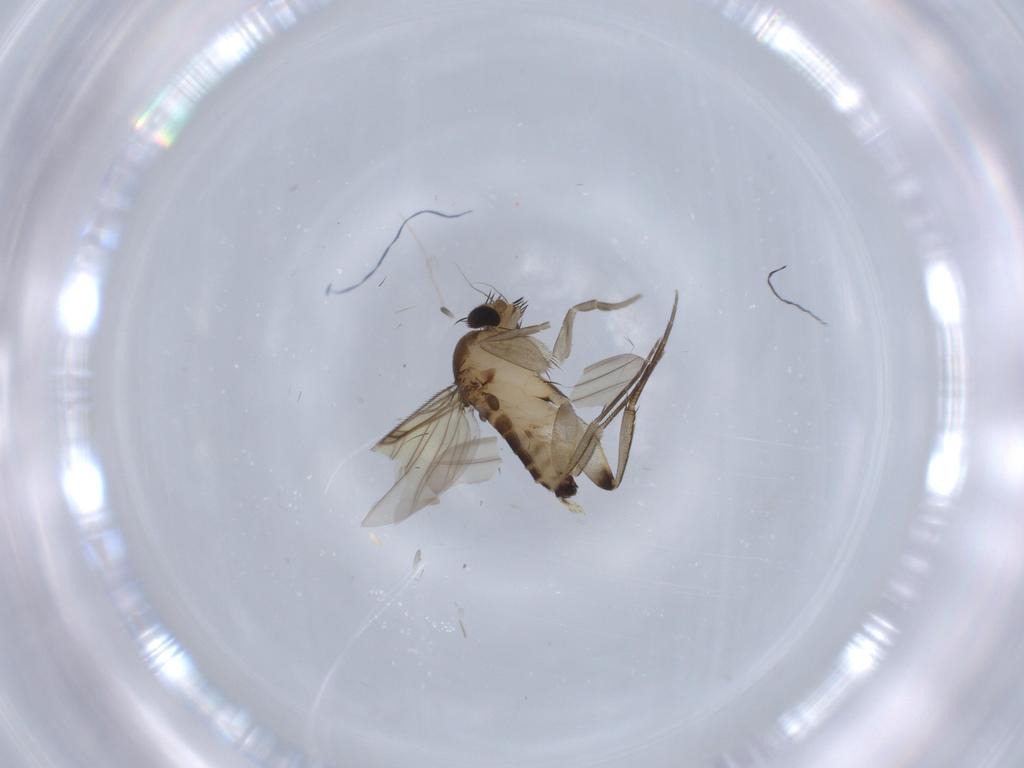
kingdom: Animalia
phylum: Arthropoda
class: Insecta
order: Diptera
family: Phoridae
